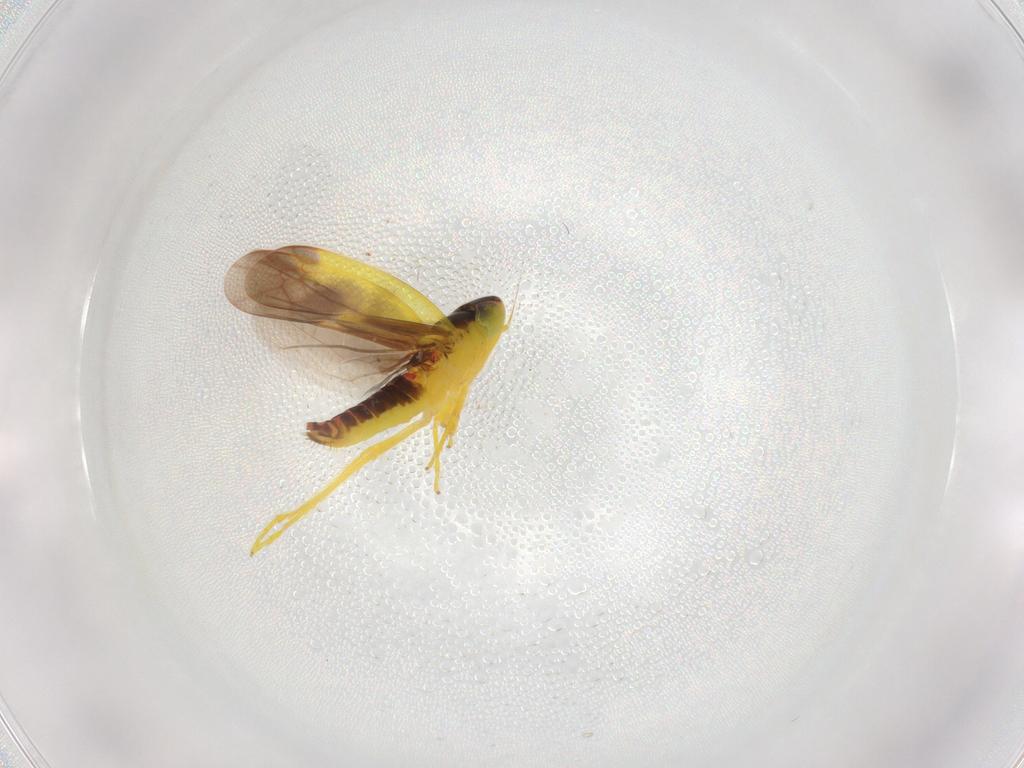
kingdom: Animalia
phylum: Arthropoda
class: Insecta
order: Hemiptera
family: Cicadellidae
